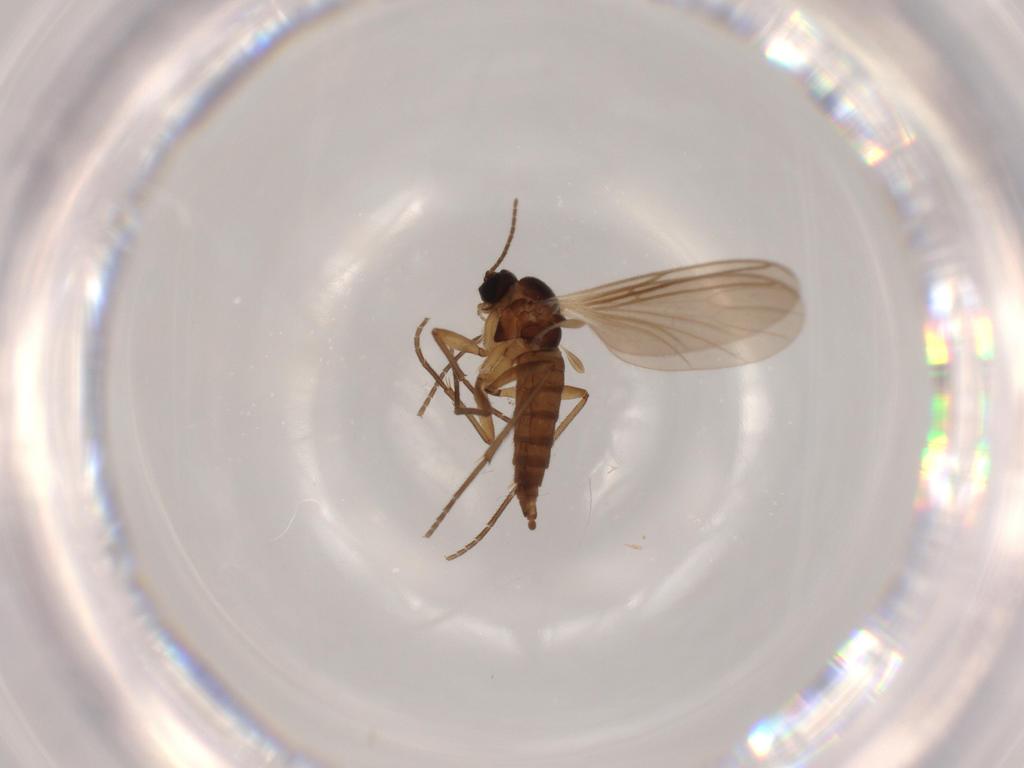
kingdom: Animalia
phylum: Arthropoda
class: Insecta
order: Diptera
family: Sciaridae
